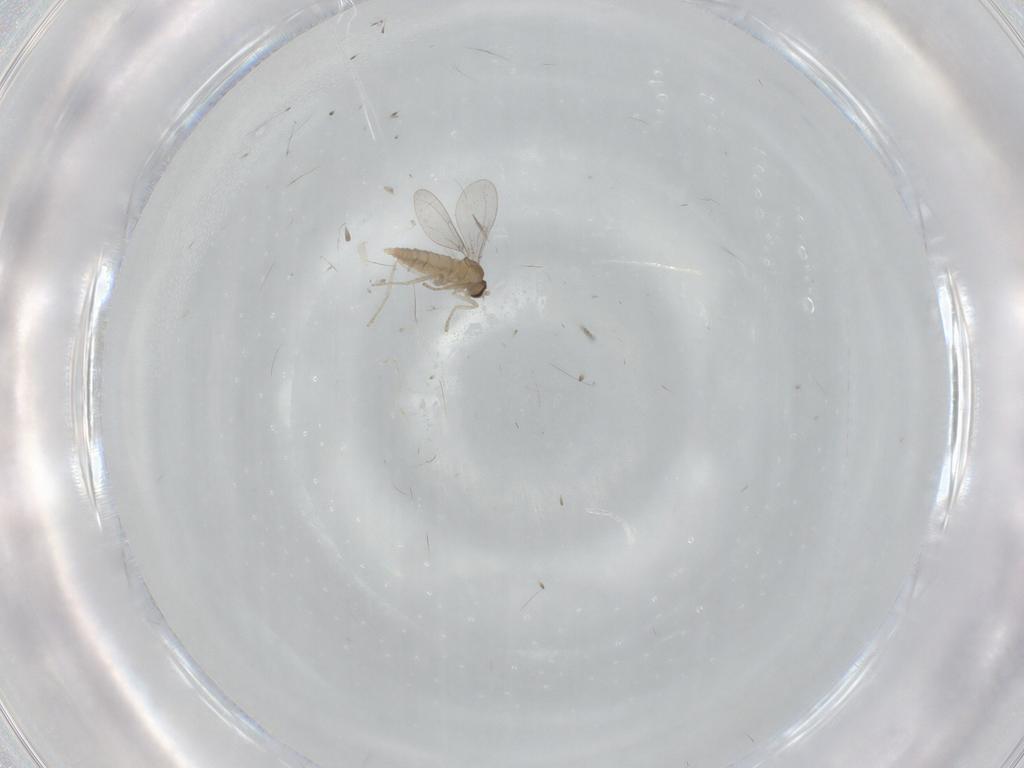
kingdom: Animalia
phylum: Arthropoda
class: Insecta
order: Diptera
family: Cecidomyiidae
